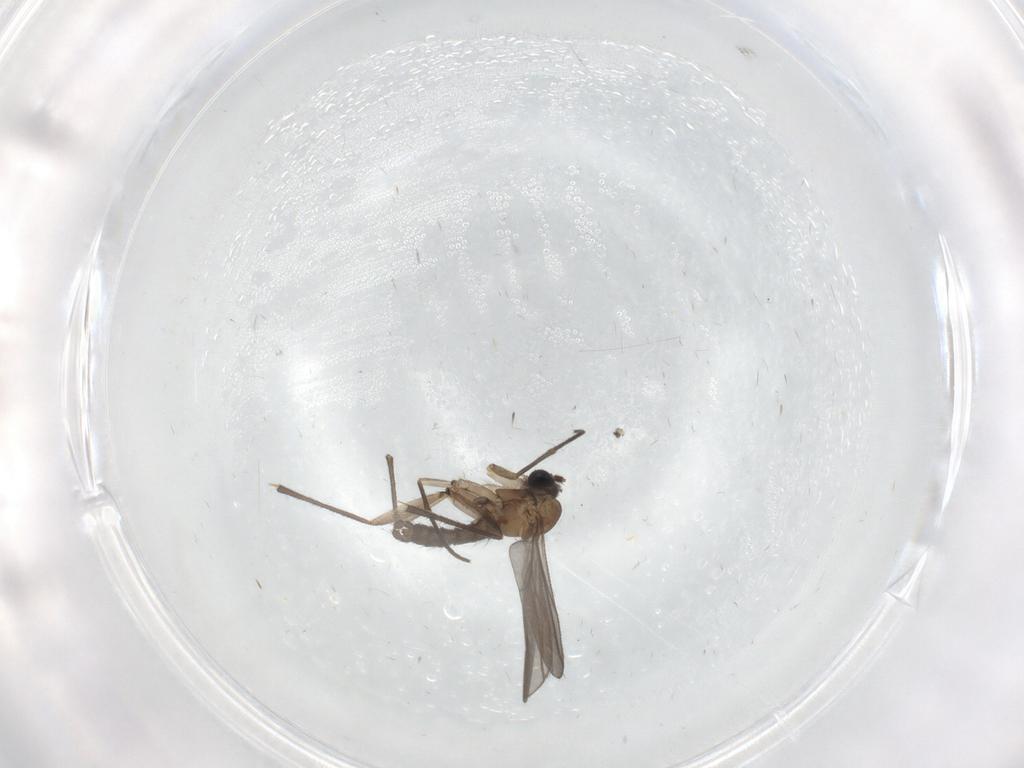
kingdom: Animalia
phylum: Arthropoda
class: Insecta
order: Diptera
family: Sciaridae
